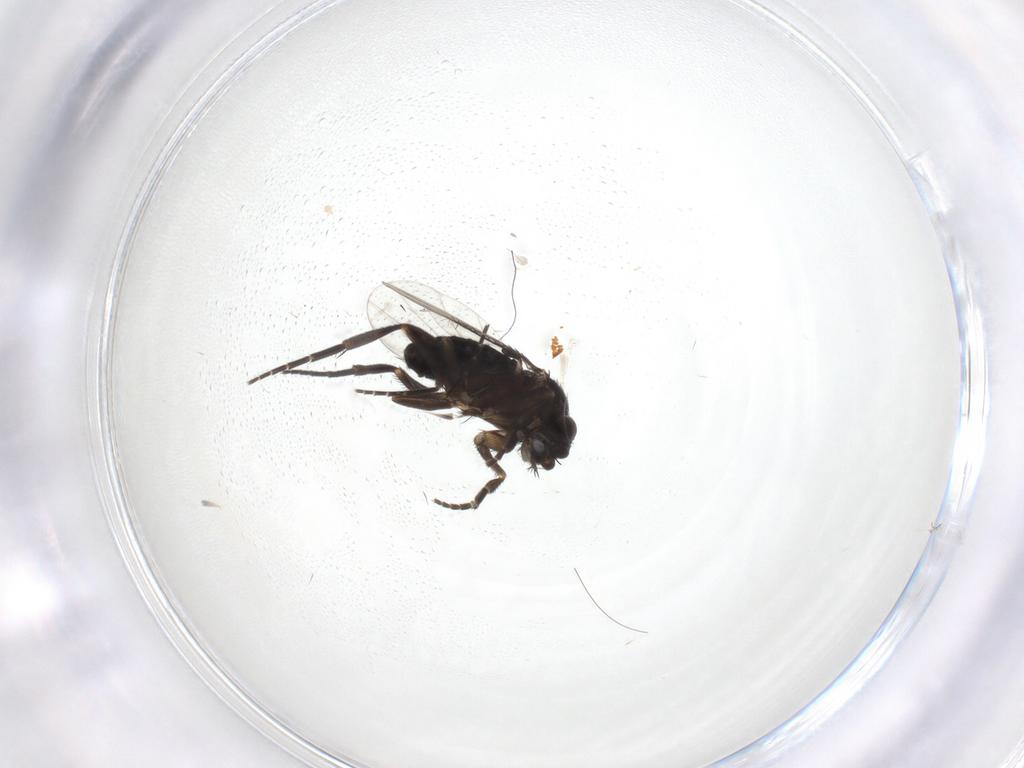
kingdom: Animalia
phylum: Arthropoda
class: Insecta
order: Diptera
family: Phoridae
